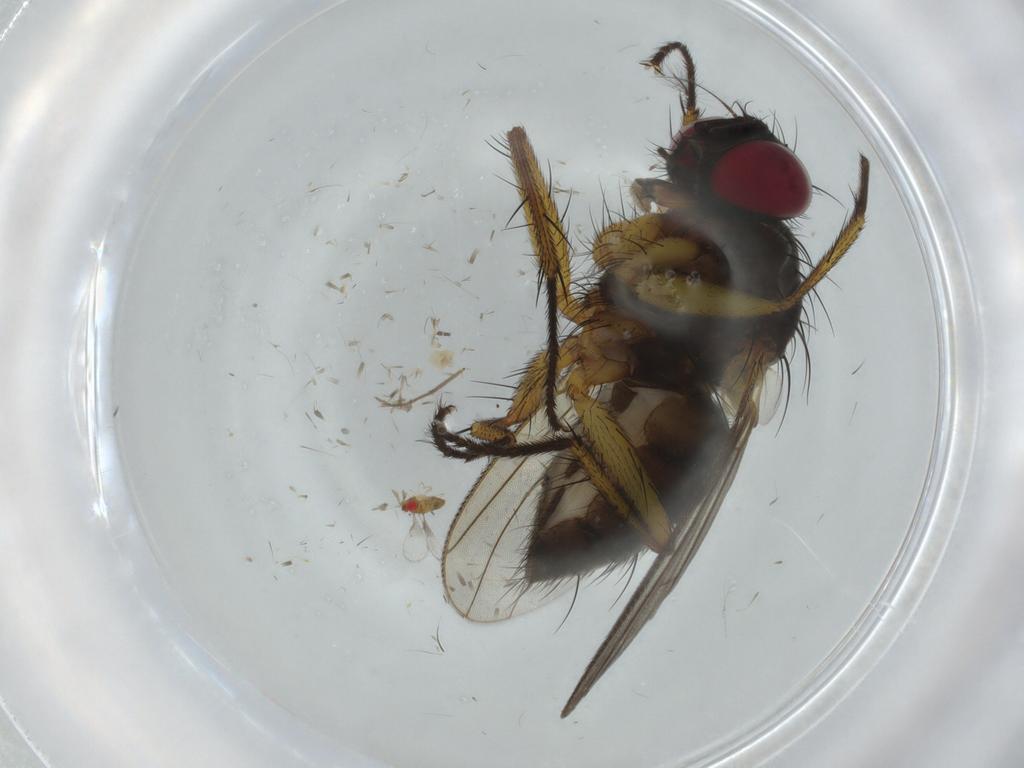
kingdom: Animalia
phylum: Arthropoda
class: Insecta
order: Diptera
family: Muscidae
